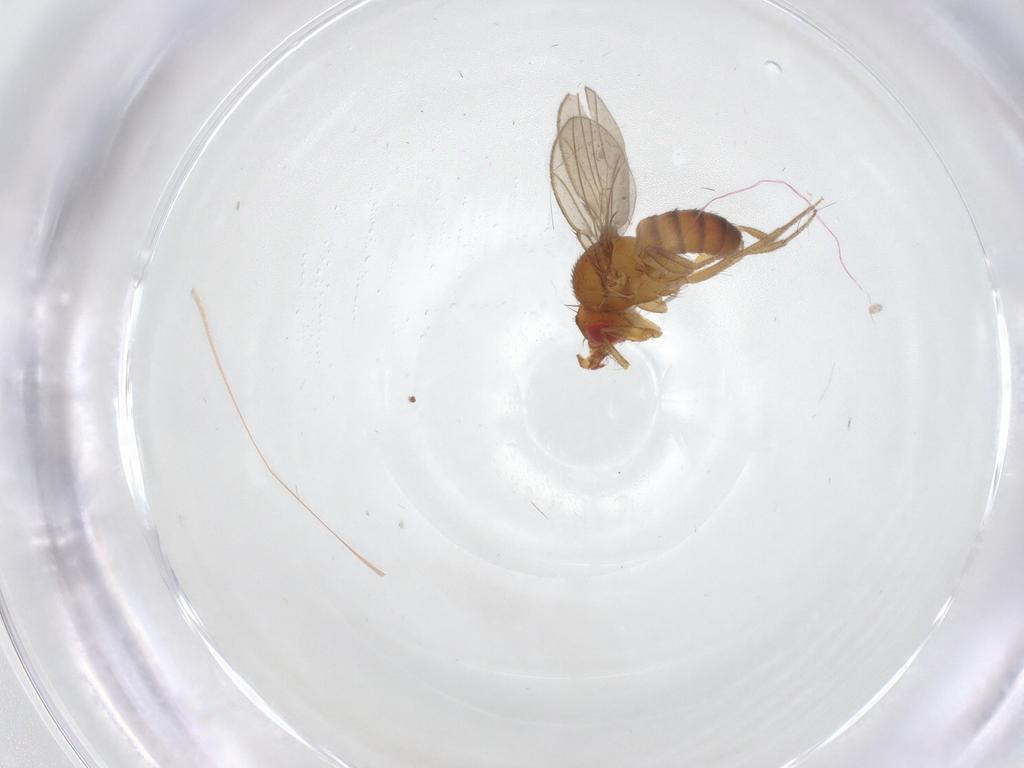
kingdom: Animalia
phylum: Arthropoda
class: Insecta
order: Diptera
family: Drosophilidae
